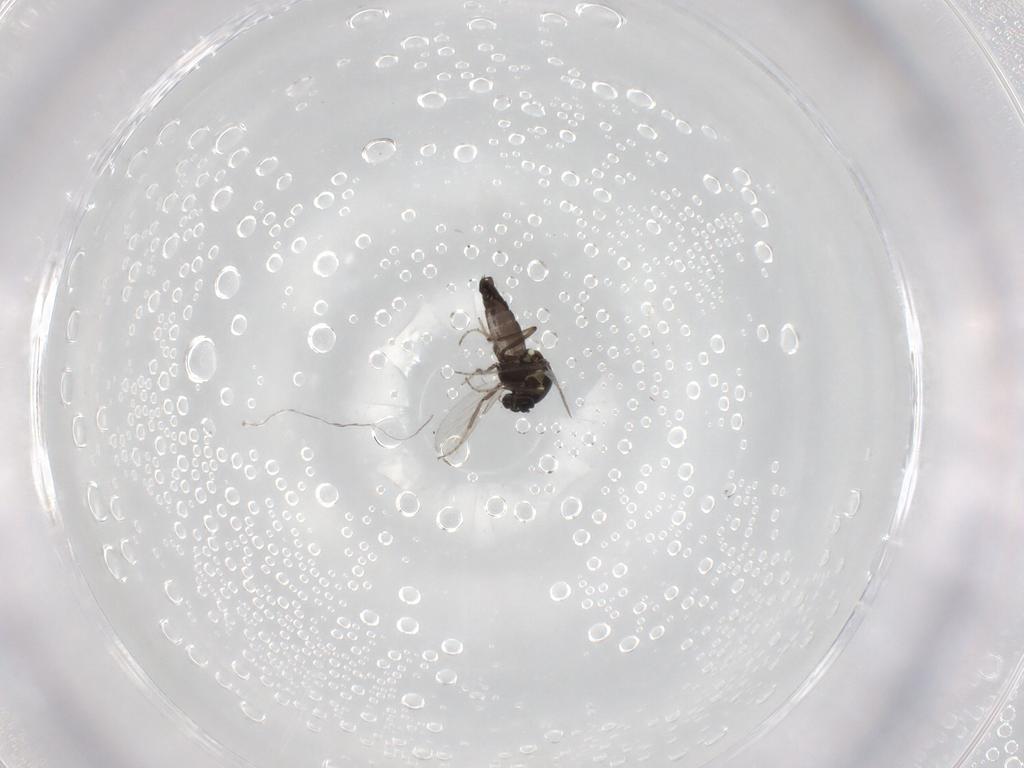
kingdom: Animalia
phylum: Arthropoda
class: Insecta
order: Diptera
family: Ceratopogonidae
